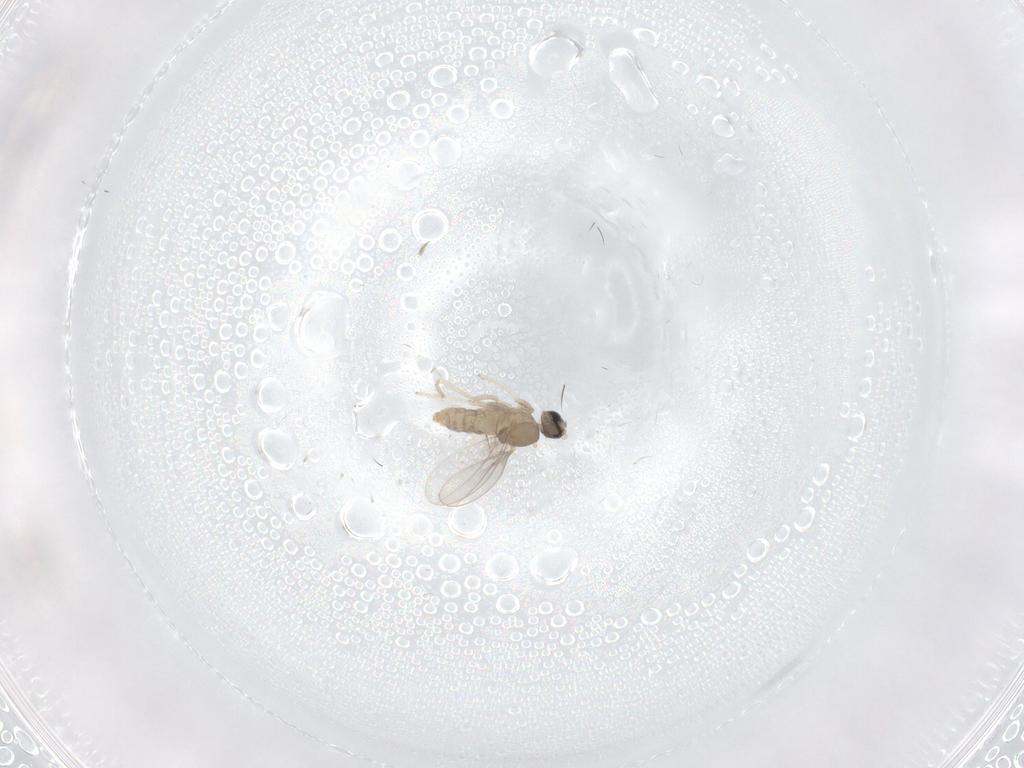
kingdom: Animalia
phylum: Arthropoda
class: Insecta
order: Diptera
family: Cecidomyiidae
